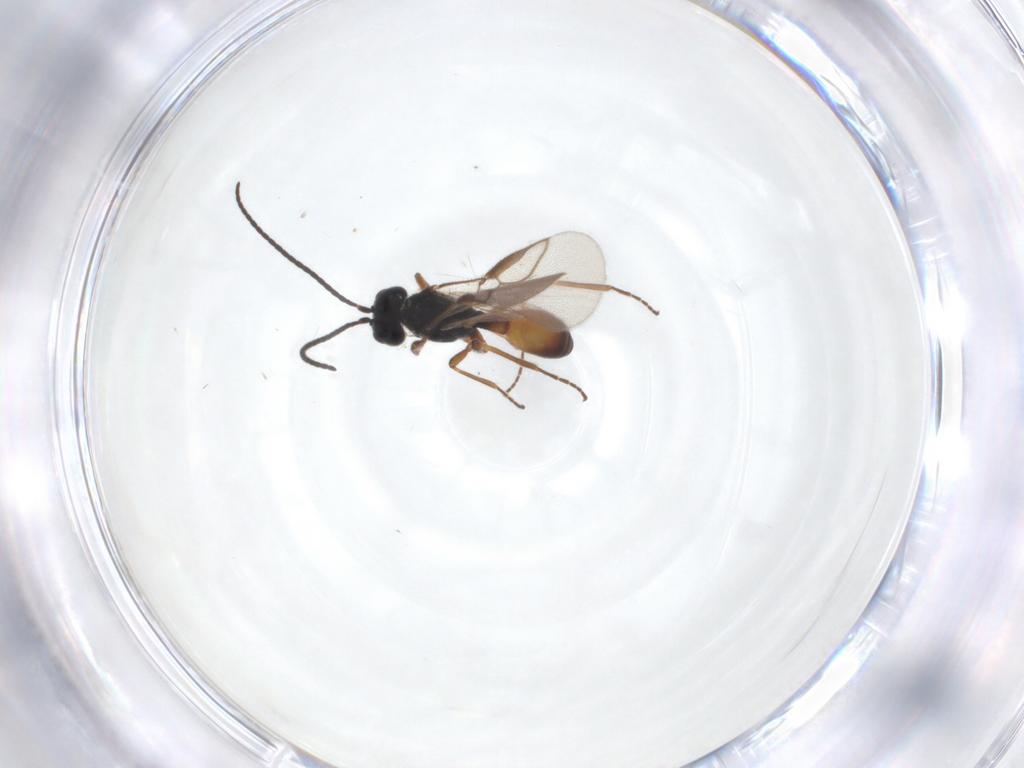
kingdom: Animalia
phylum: Arthropoda
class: Insecta
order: Hymenoptera
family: Braconidae
